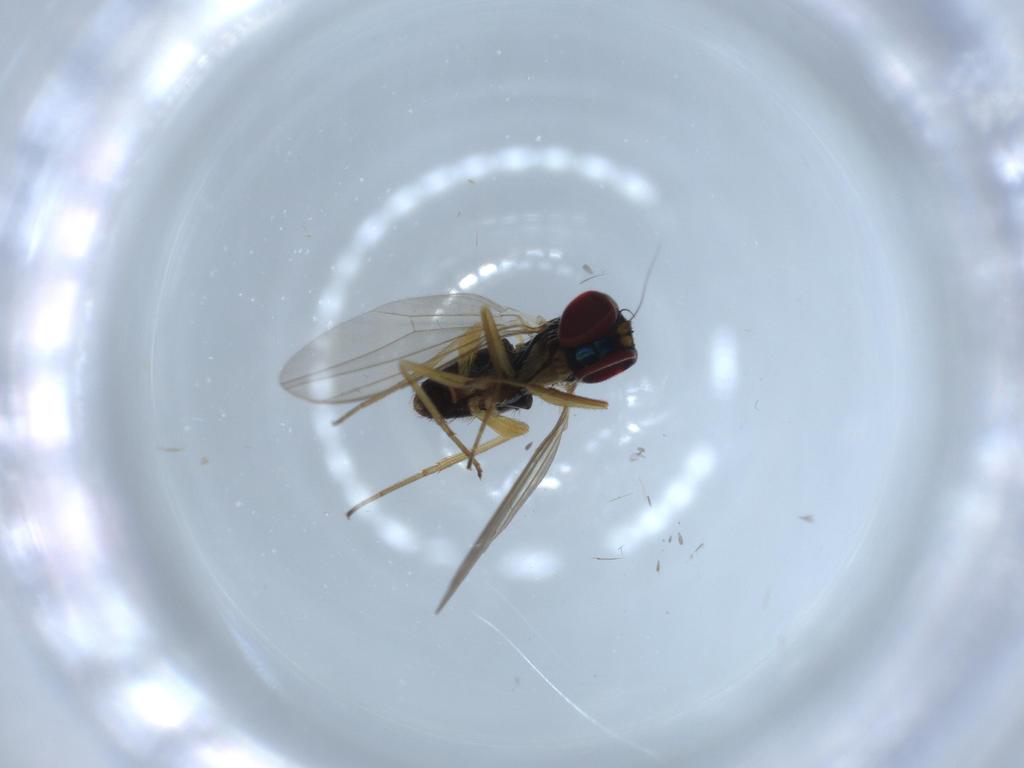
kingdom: Animalia
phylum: Arthropoda
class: Insecta
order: Diptera
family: Dolichopodidae
